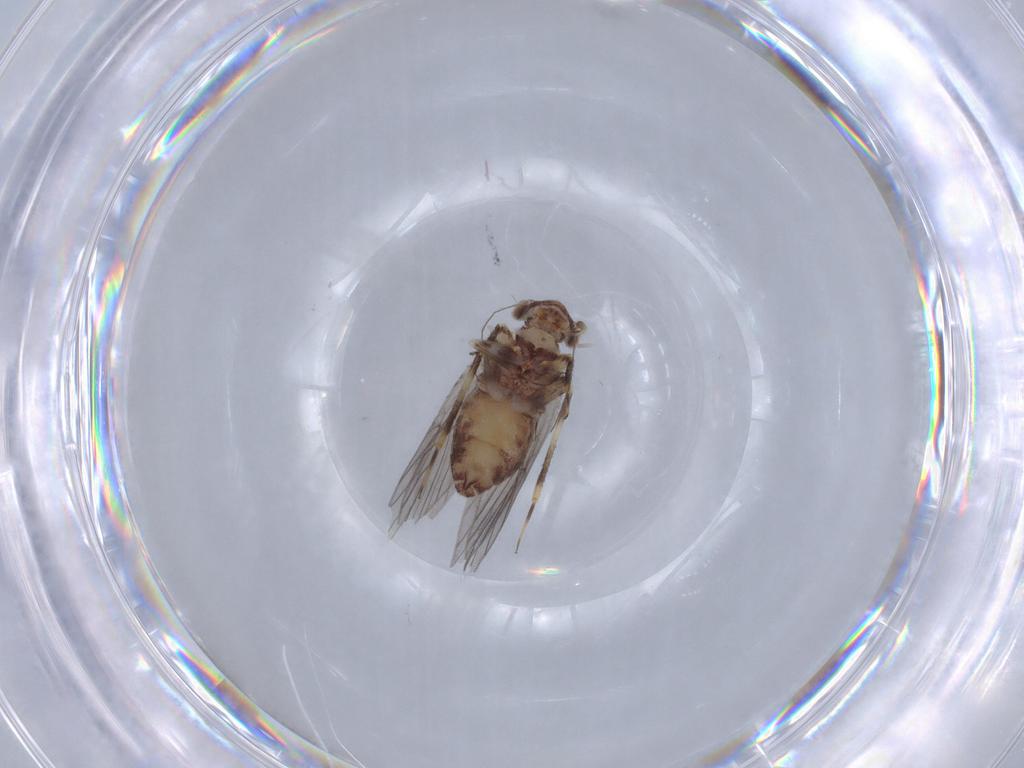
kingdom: Animalia
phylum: Arthropoda
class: Insecta
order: Psocodea
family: Lepidopsocidae
